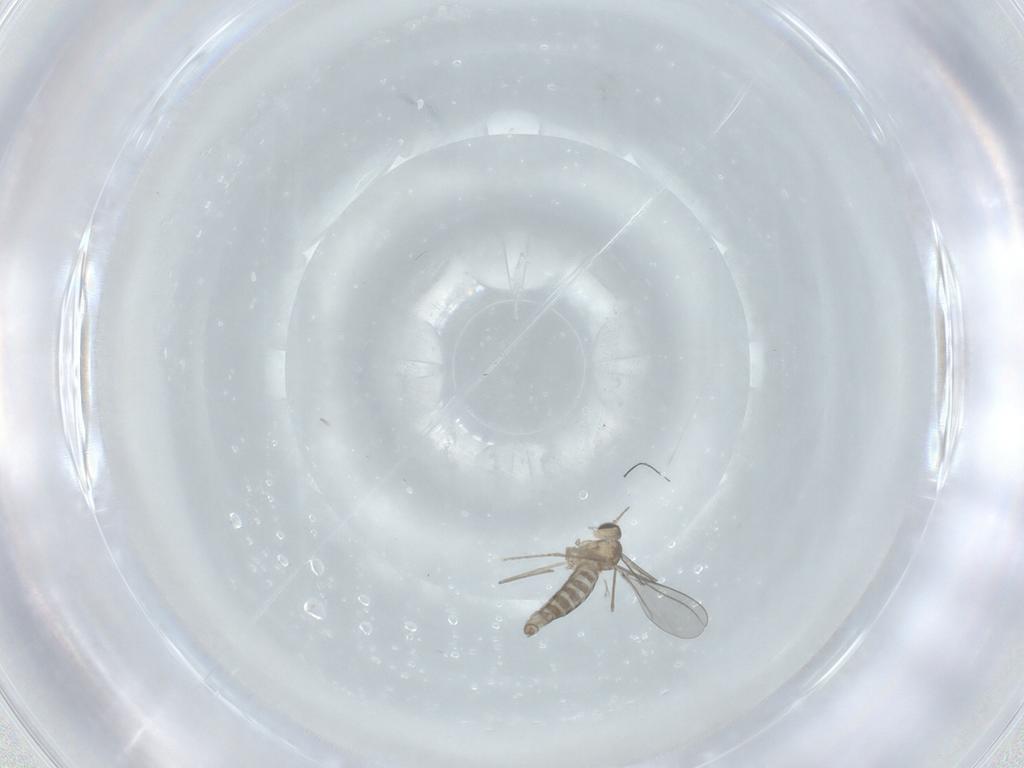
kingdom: Animalia
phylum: Arthropoda
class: Insecta
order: Diptera
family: Cecidomyiidae
